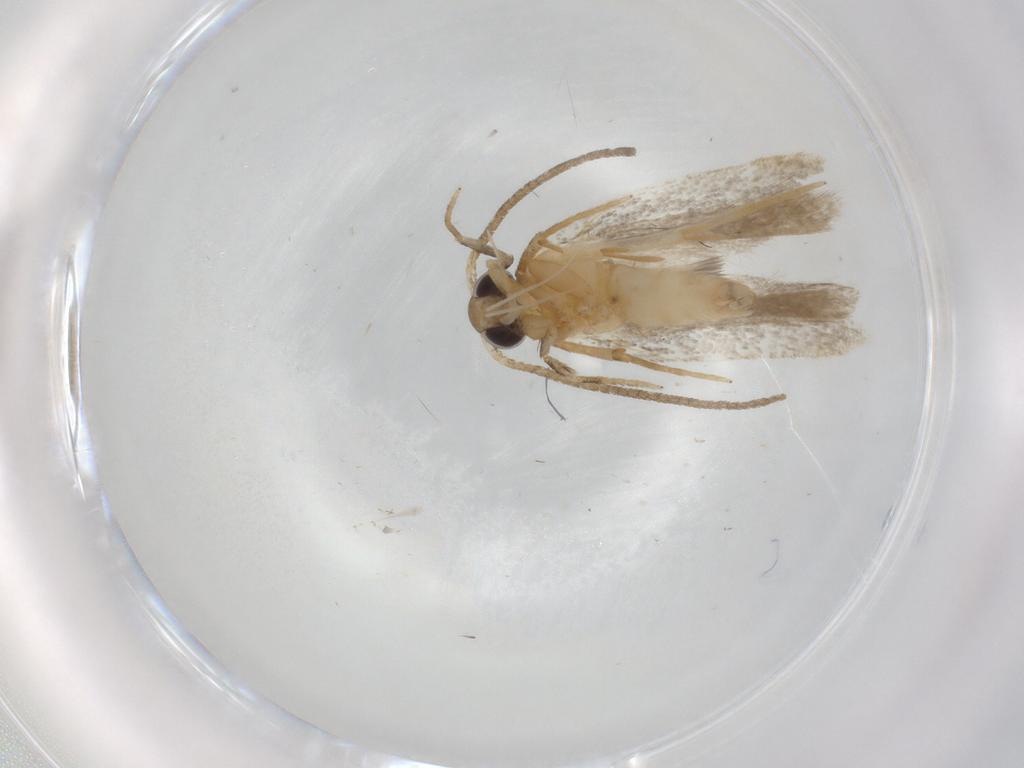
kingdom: Animalia
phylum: Arthropoda
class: Insecta
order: Lepidoptera
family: Autostichidae
